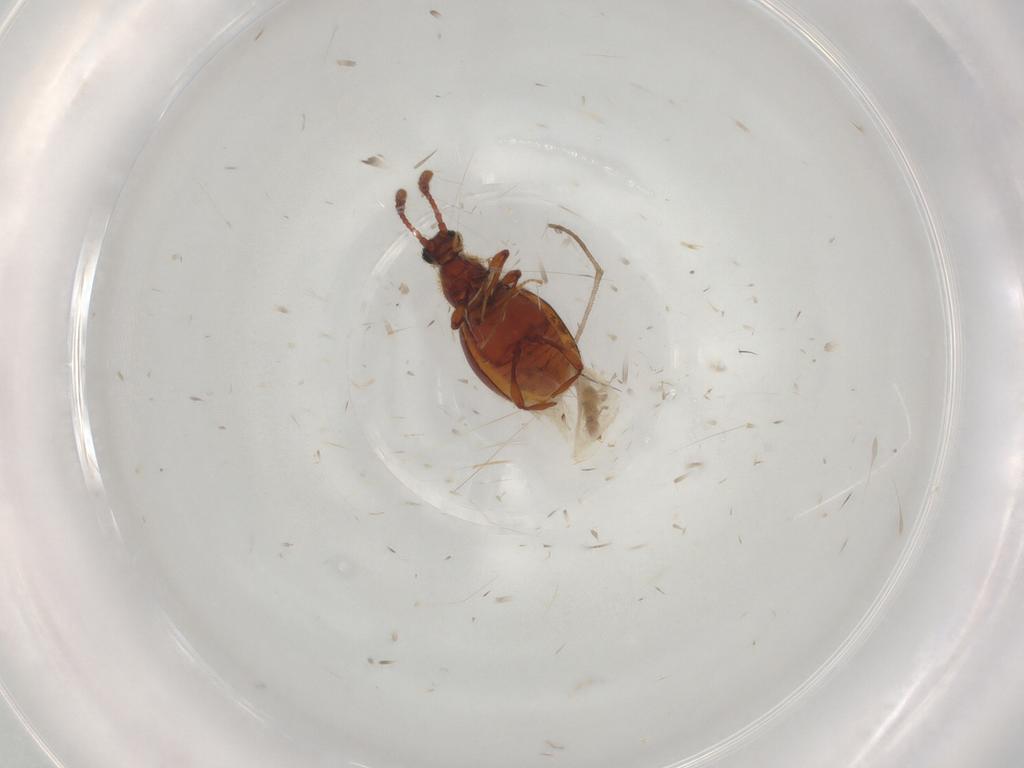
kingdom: Animalia
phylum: Arthropoda
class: Insecta
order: Coleoptera
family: Staphylinidae
